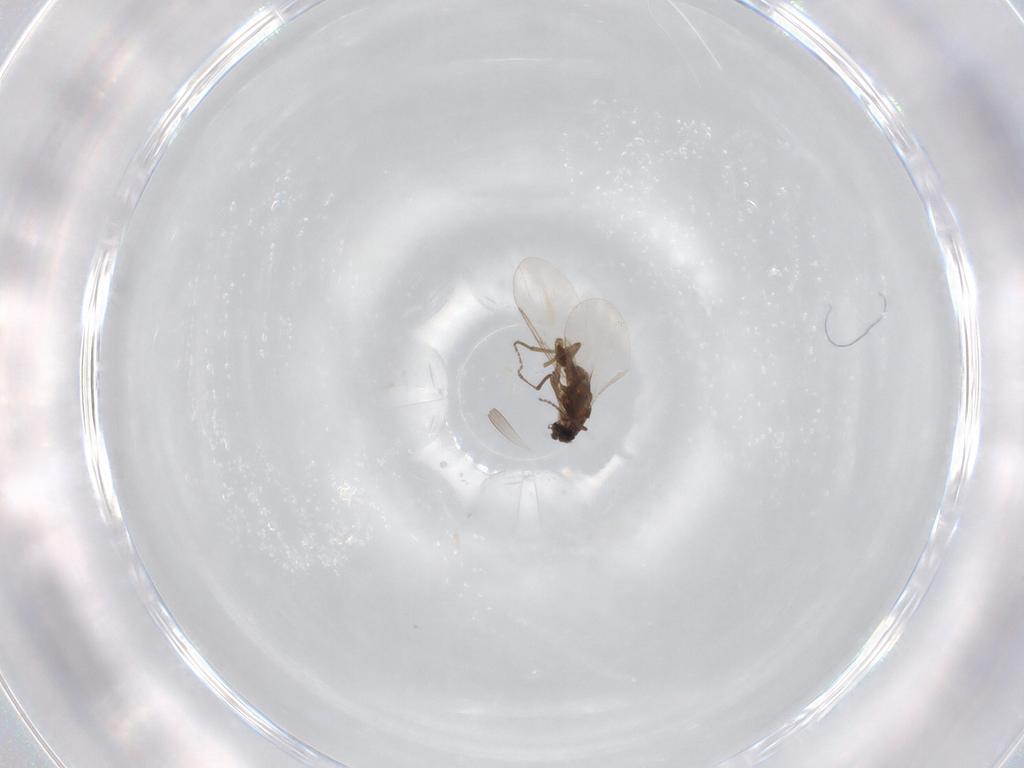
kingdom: Animalia
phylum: Arthropoda
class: Insecta
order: Diptera
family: Cecidomyiidae
